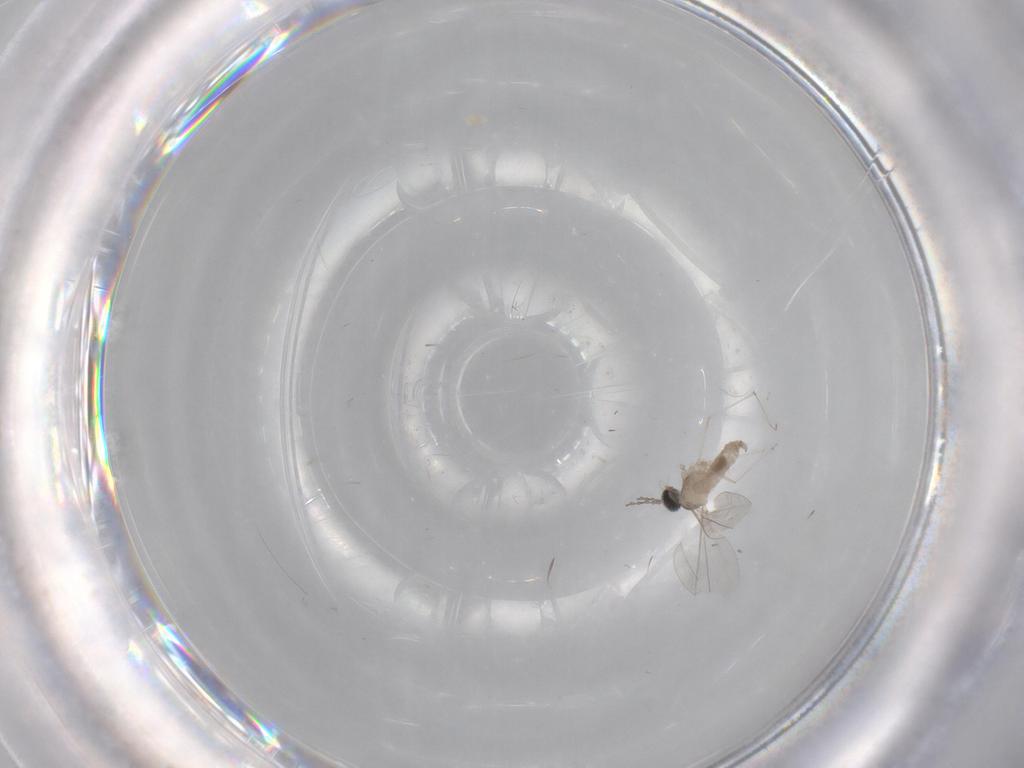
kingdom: Animalia
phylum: Arthropoda
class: Insecta
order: Diptera
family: Cecidomyiidae
